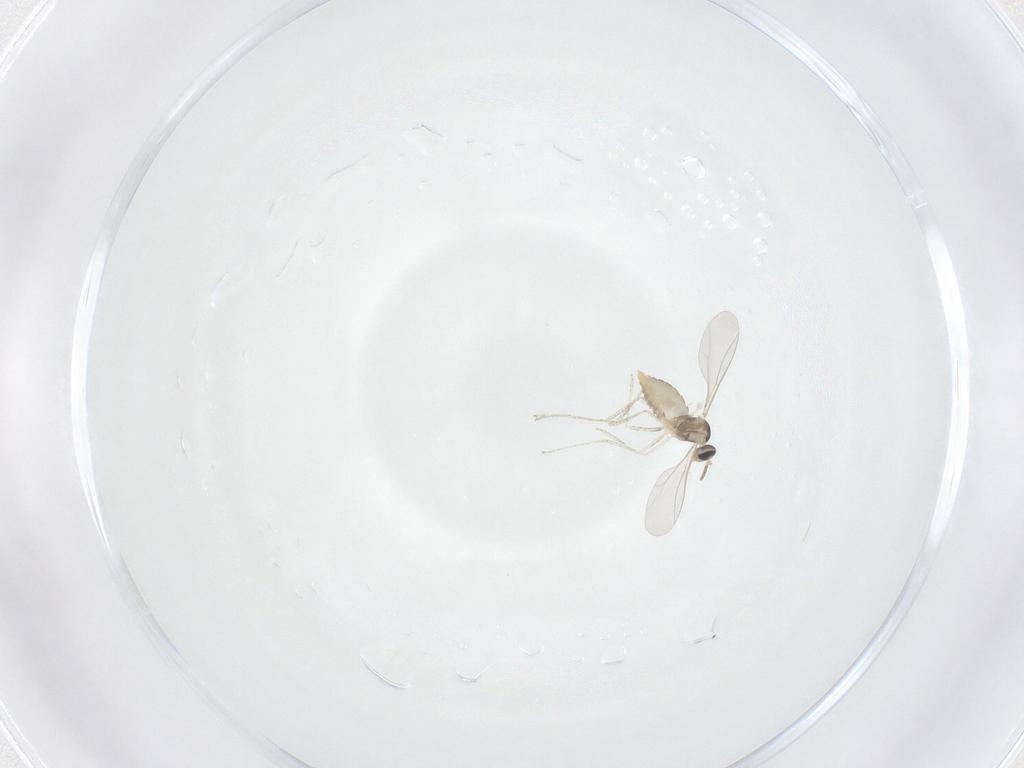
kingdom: Animalia
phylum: Arthropoda
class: Insecta
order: Diptera
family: Cecidomyiidae
